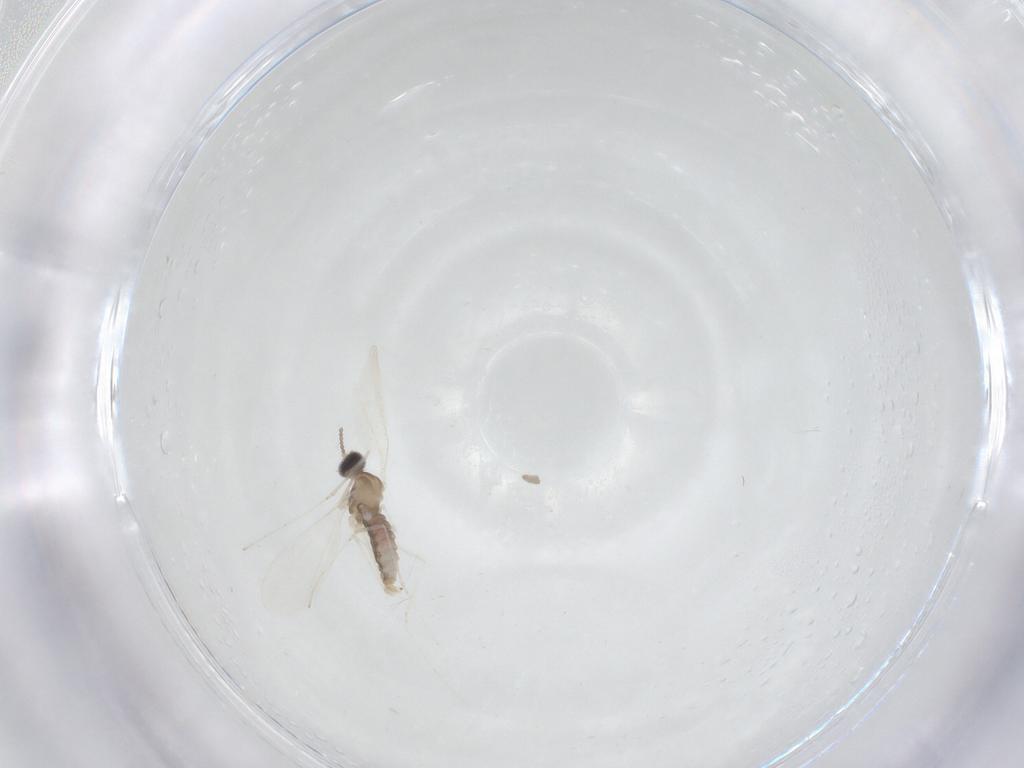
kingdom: Animalia
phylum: Arthropoda
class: Insecta
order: Diptera
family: Cecidomyiidae
